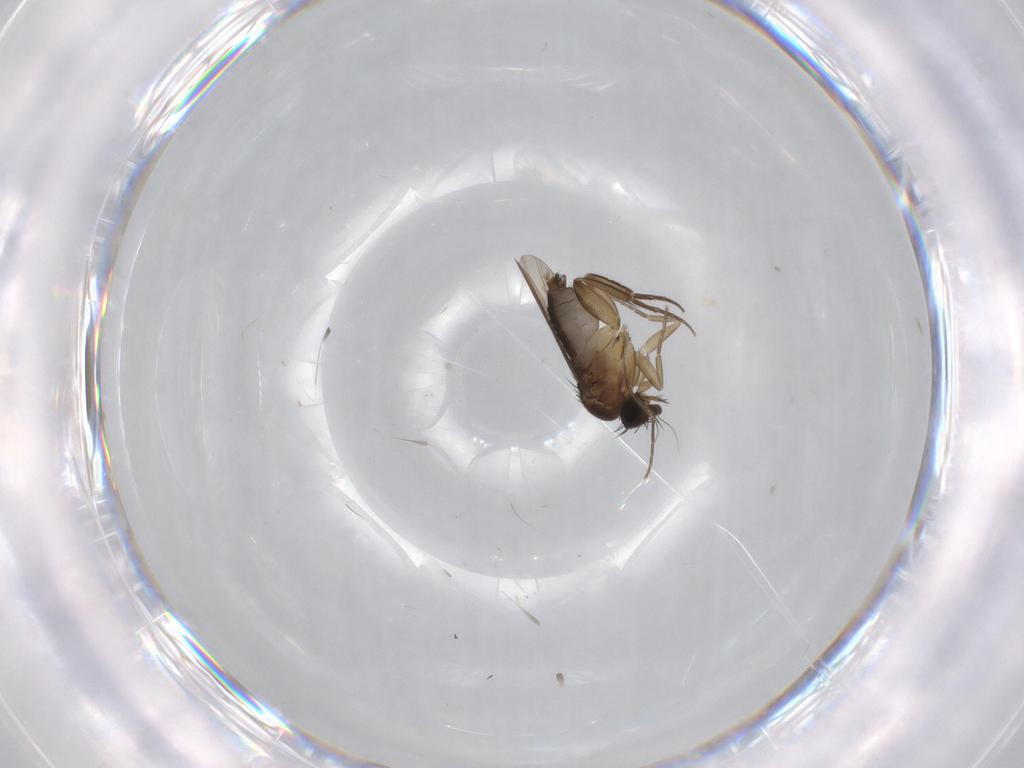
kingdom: Animalia
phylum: Arthropoda
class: Insecta
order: Diptera
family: Phoridae
